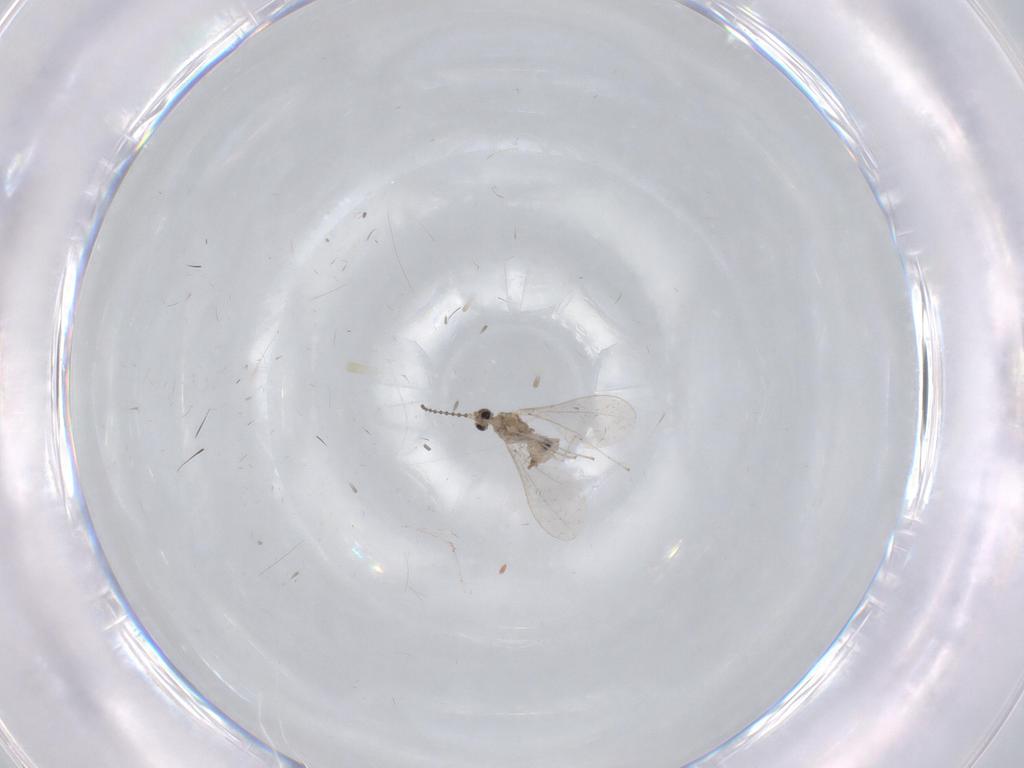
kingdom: Animalia
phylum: Arthropoda
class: Insecta
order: Diptera
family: Cecidomyiidae
